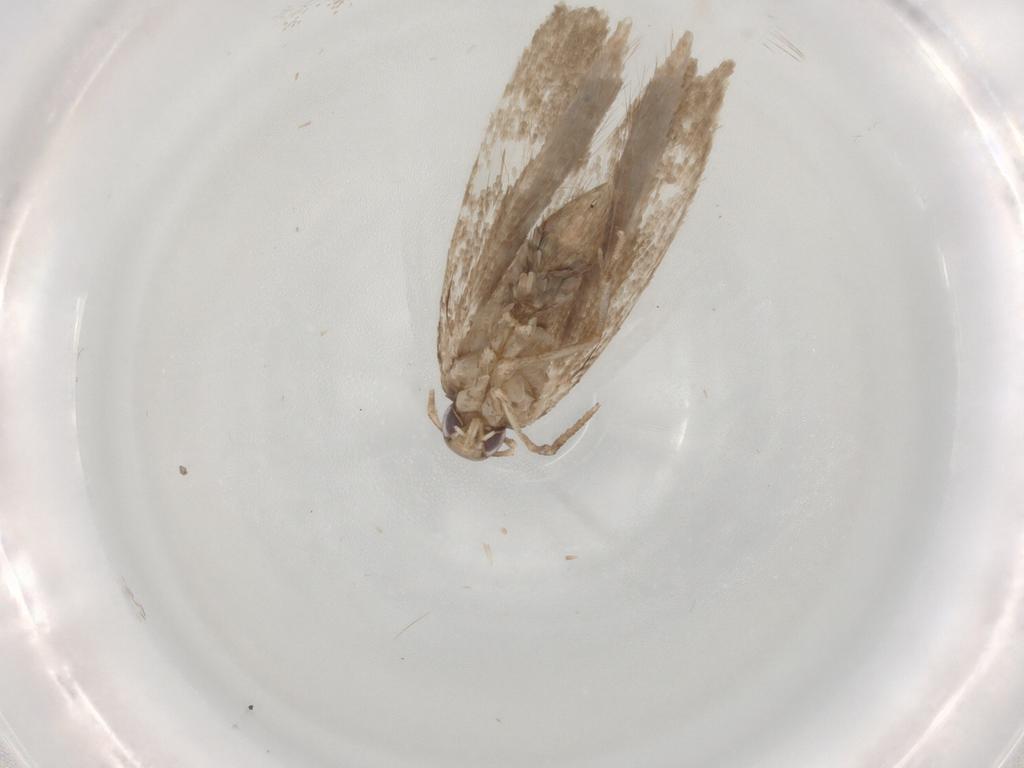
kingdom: Animalia
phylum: Arthropoda
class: Insecta
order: Lepidoptera
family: Gelechiidae
